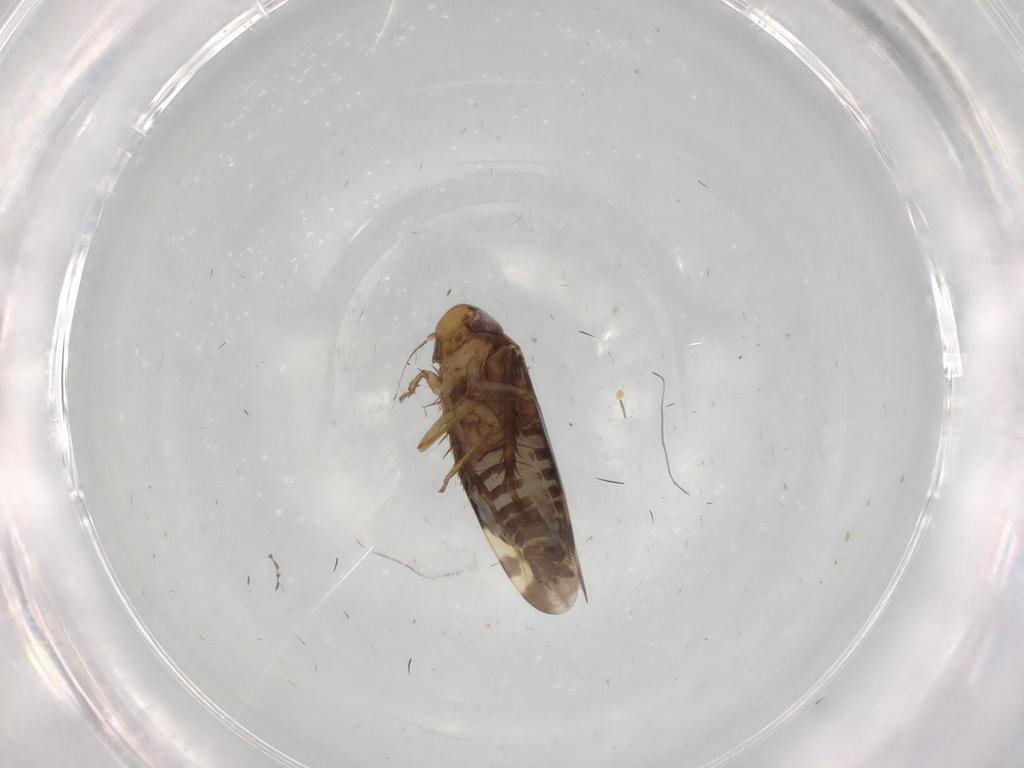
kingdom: Animalia
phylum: Arthropoda
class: Insecta
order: Hemiptera
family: Cicadellidae
